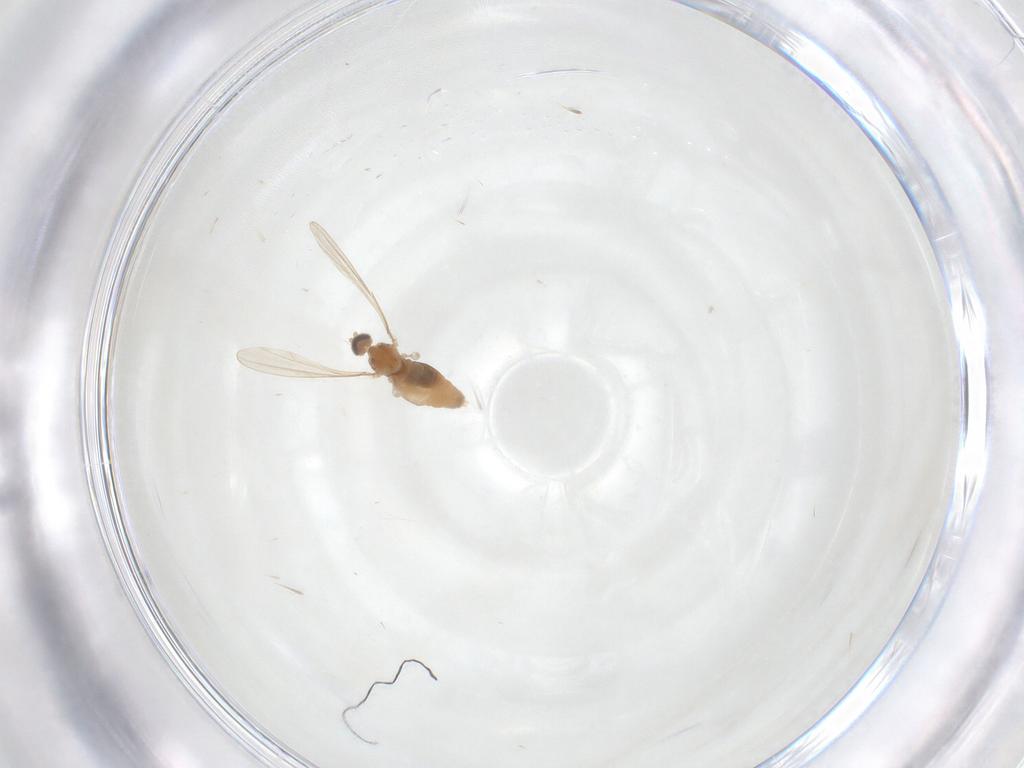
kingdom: Animalia
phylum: Arthropoda
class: Insecta
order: Diptera
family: Cecidomyiidae
